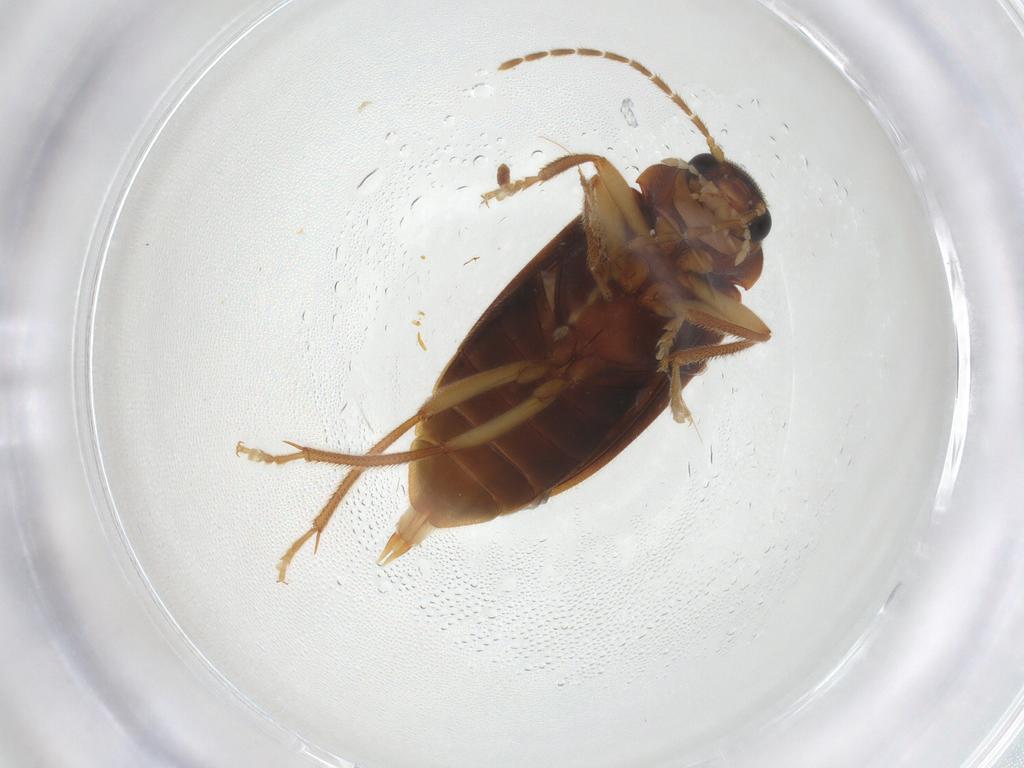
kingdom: Animalia
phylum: Arthropoda
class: Insecta
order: Coleoptera
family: Ptilodactylidae
